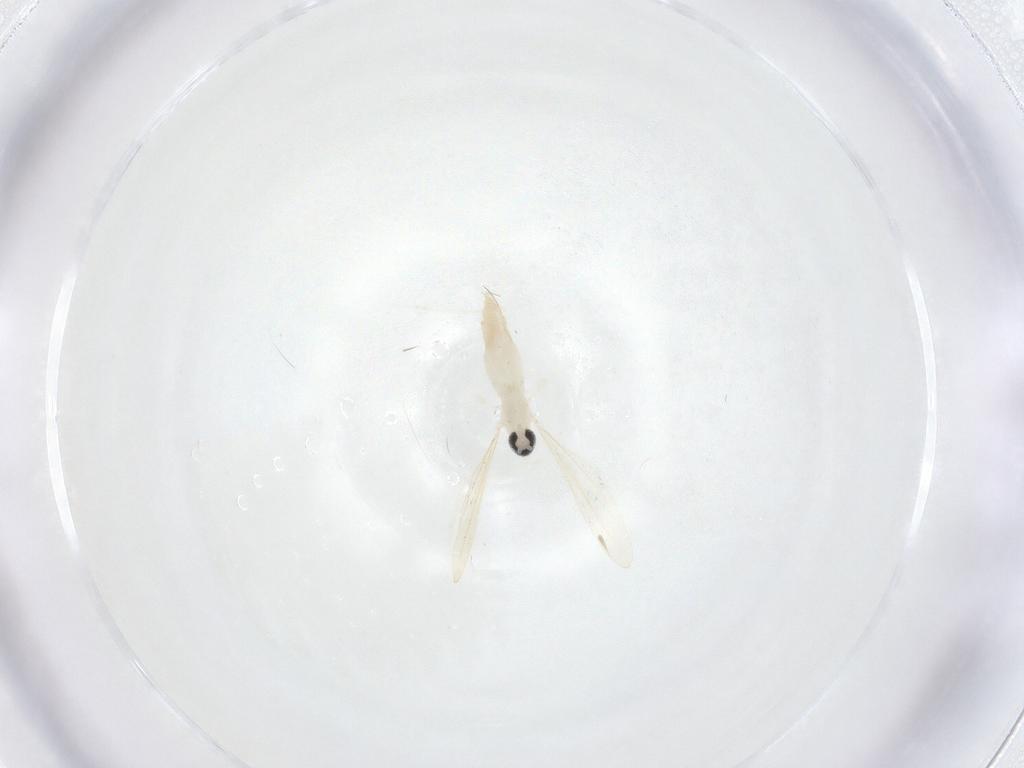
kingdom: Animalia
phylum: Arthropoda
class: Insecta
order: Diptera
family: Cecidomyiidae
